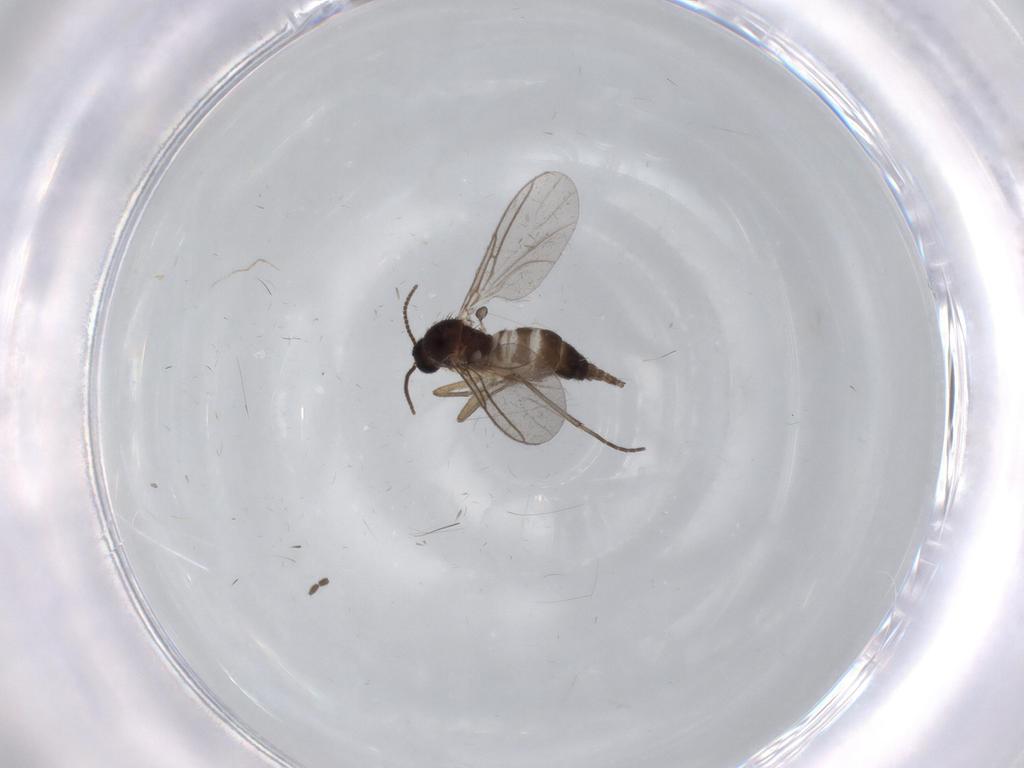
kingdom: Animalia
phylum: Arthropoda
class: Insecta
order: Diptera
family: Sciaridae
